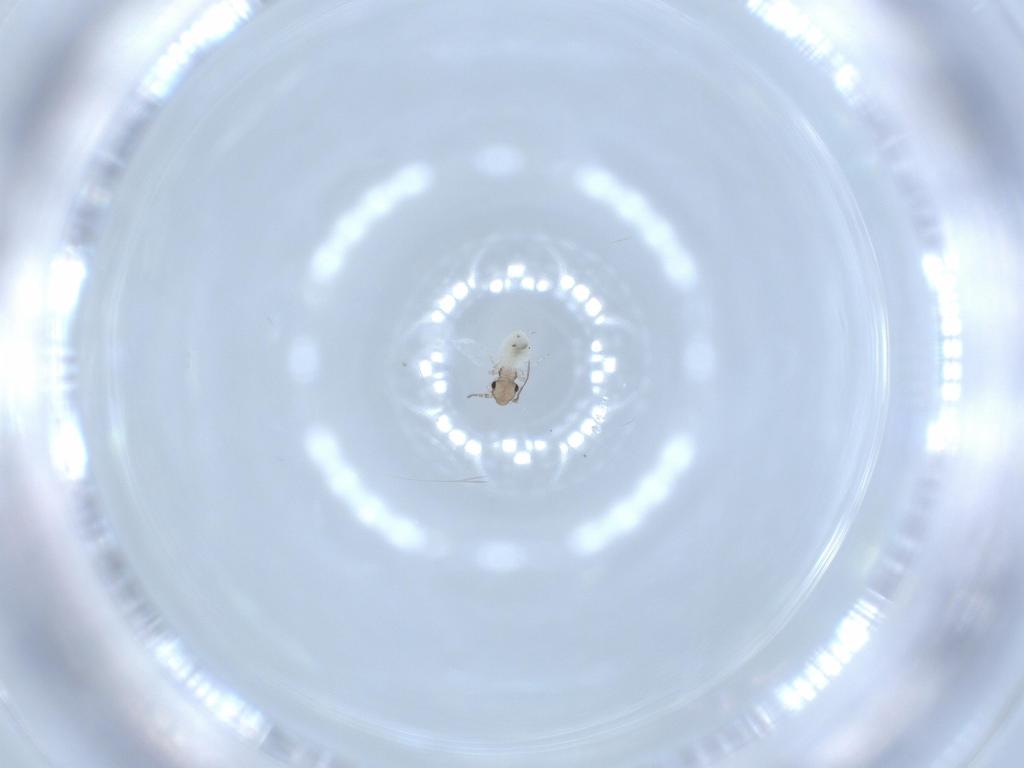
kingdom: Animalia
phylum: Arthropoda
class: Insecta
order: Psocodea
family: Lepidopsocidae
